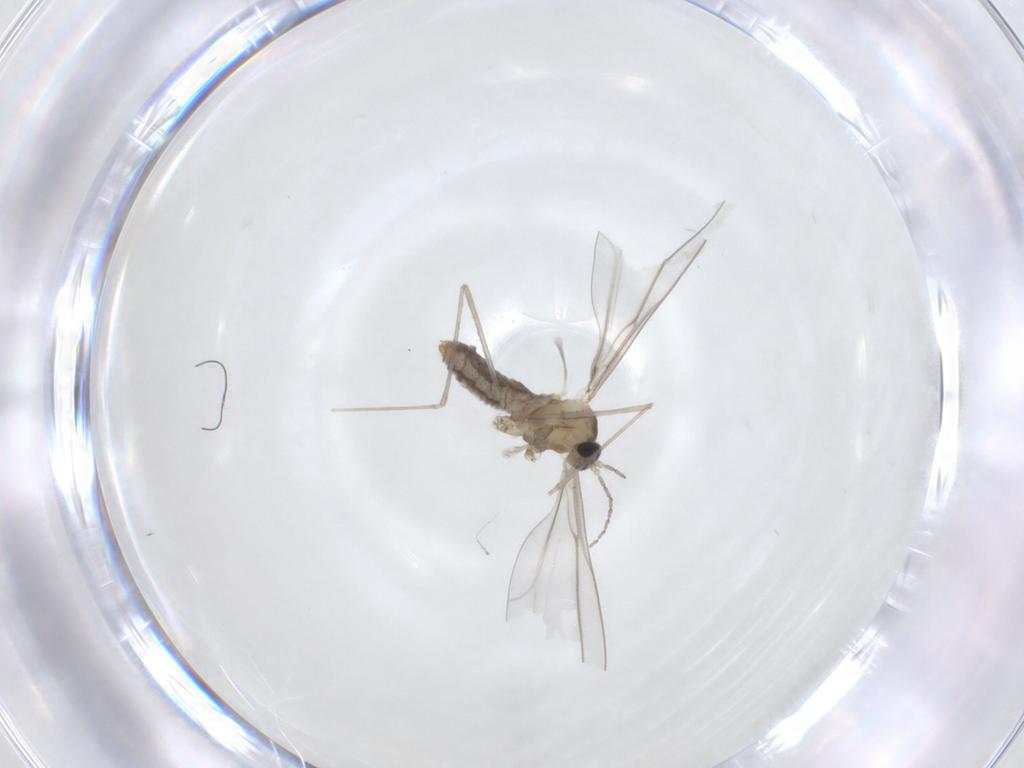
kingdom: Animalia
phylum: Arthropoda
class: Insecta
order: Diptera
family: Cecidomyiidae
